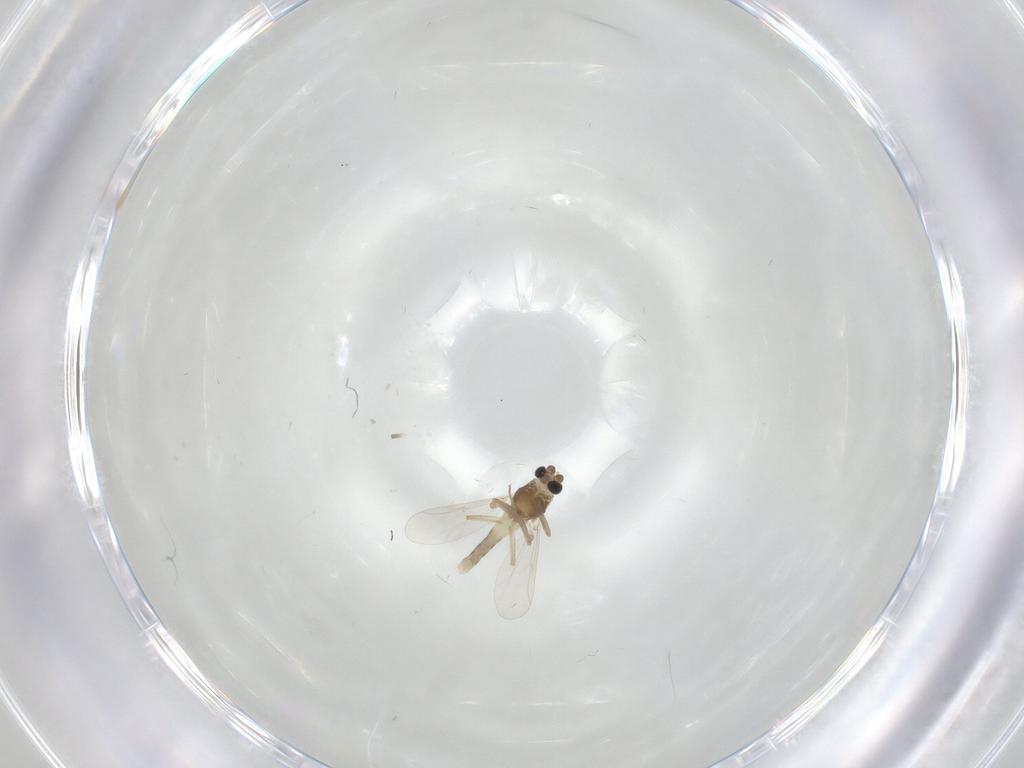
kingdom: Animalia
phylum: Arthropoda
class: Insecta
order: Diptera
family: Chironomidae
